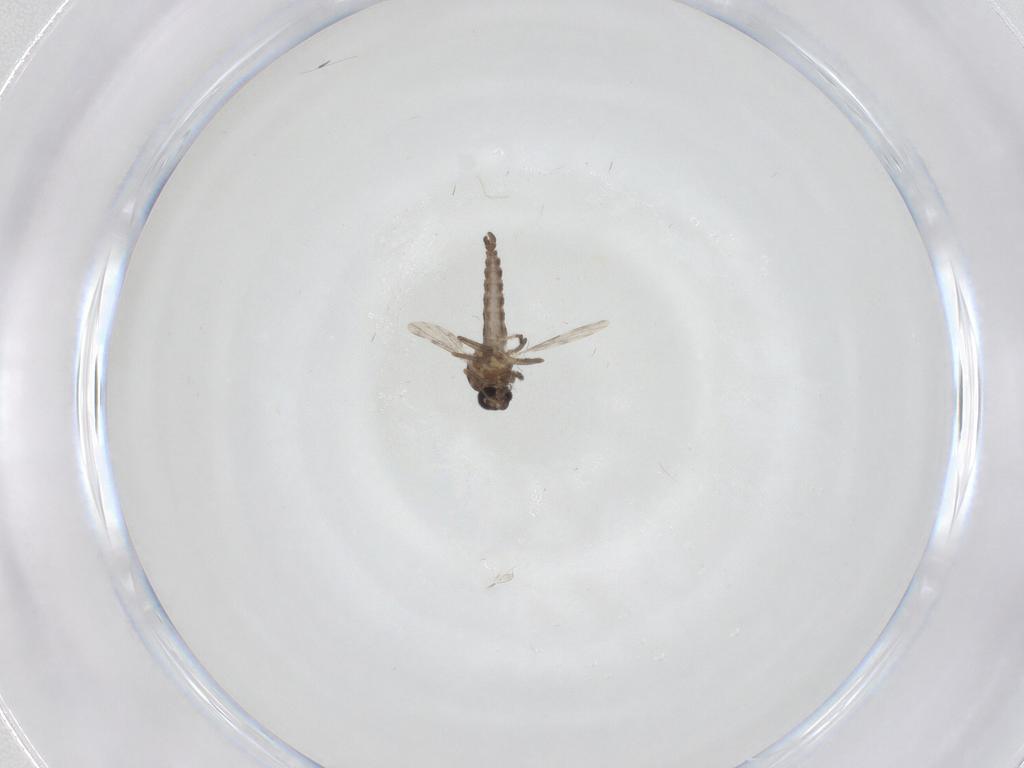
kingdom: Animalia
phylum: Arthropoda
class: Insecta
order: Diptera
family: Ceratopogonidae
